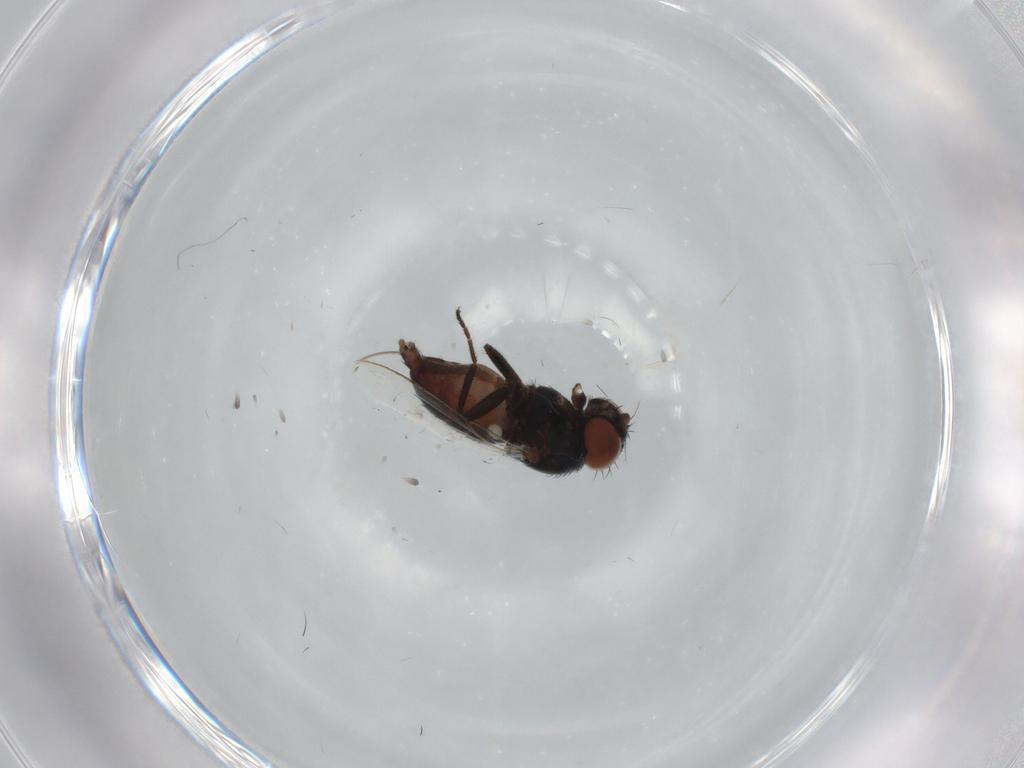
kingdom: Animalia
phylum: Arthropoda
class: Insecta
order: Diptera
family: Milichiidae
